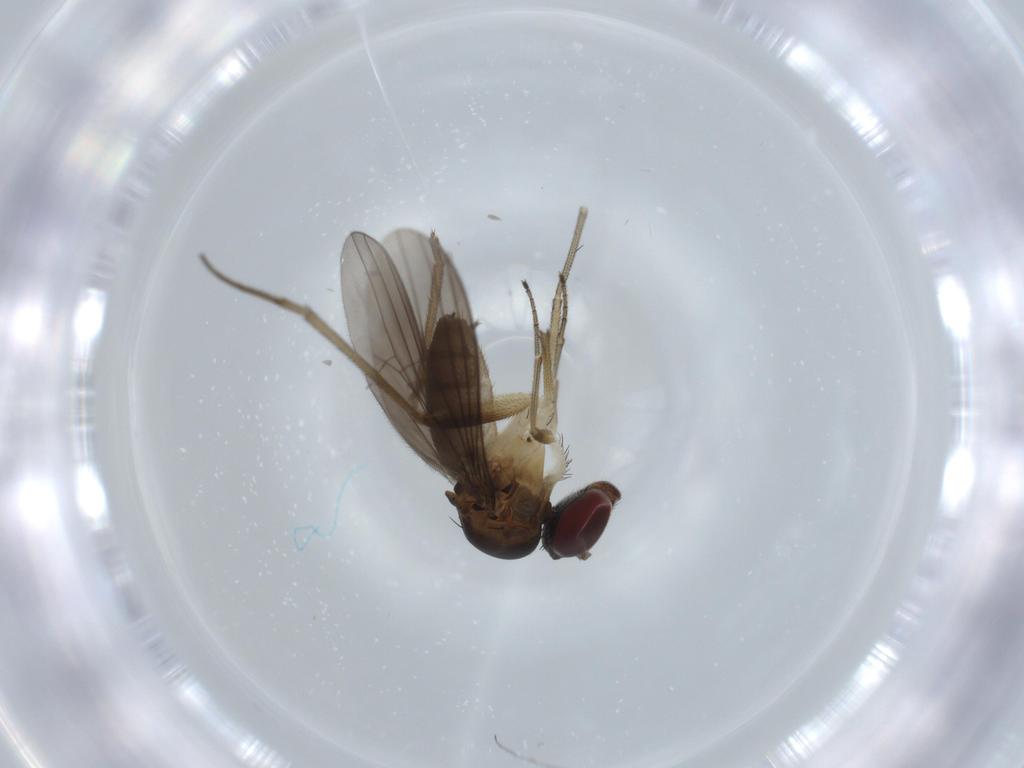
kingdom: Animalia
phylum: Arthropoda
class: Insecta
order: Diptera
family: Dolichopodidae
